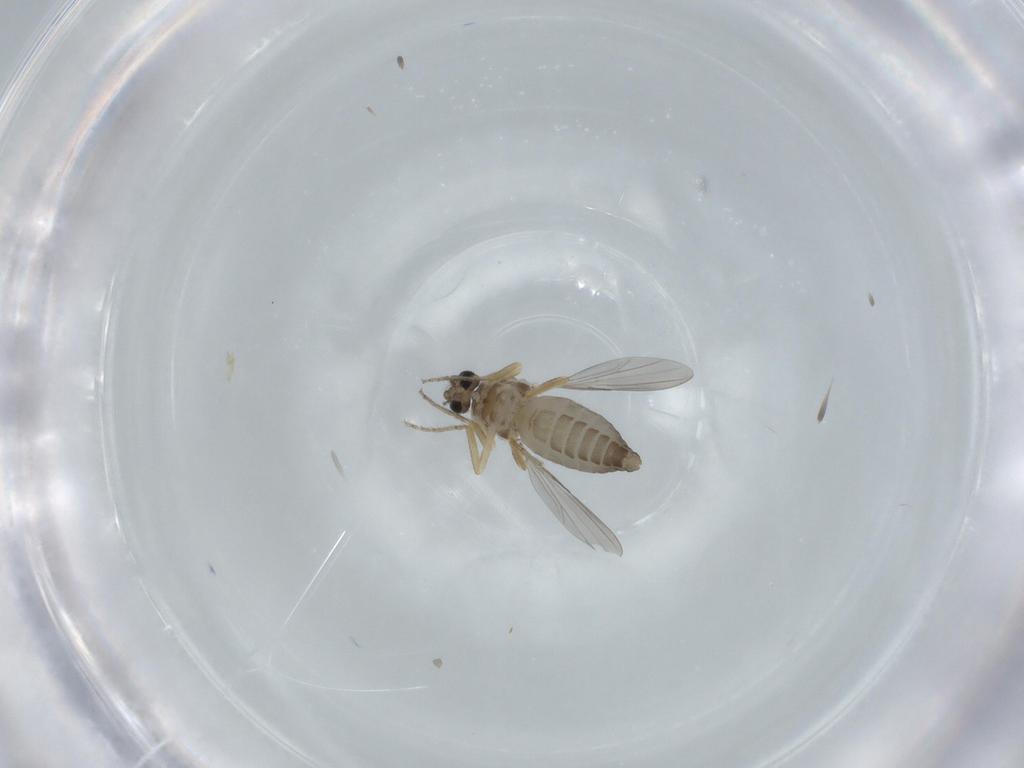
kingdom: Animalia
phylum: Arthropoda
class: Insecta
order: Diptera
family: Ceratopogonidae
